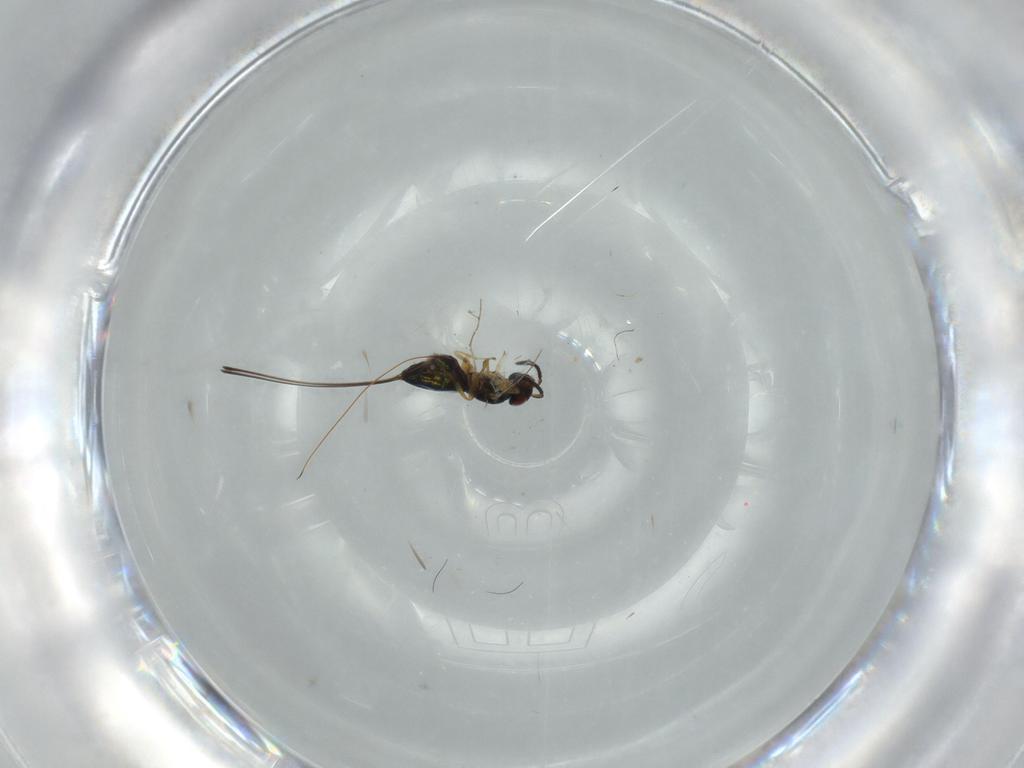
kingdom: Animalia
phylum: Arthropoda
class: Insecta
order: Hymenoptera
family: Agaonidae
